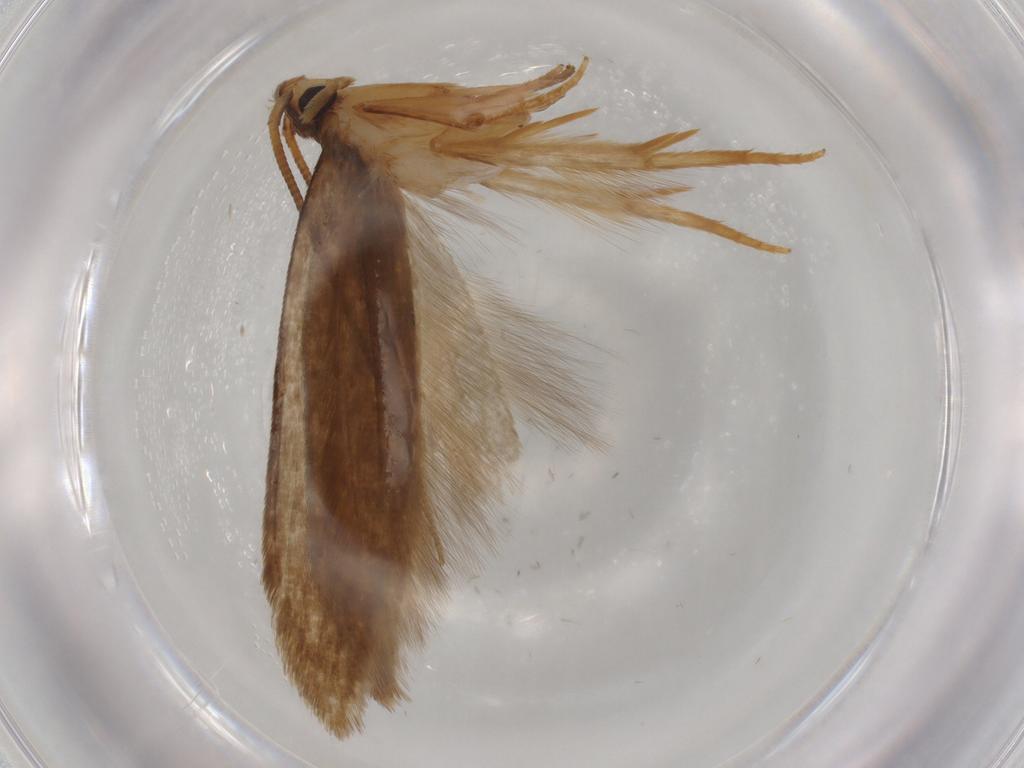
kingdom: Animalia
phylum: Arthropoda
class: Insecta
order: Lepidoptera
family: Tineidae
